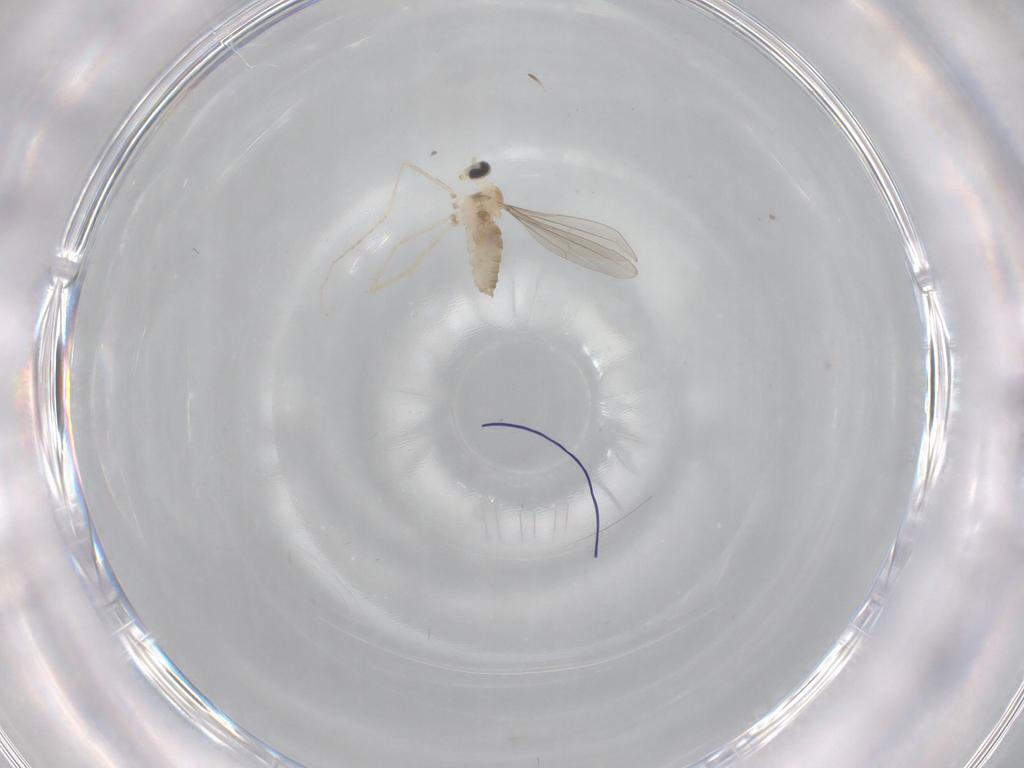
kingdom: Animalia
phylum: Arthropoda
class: Insecta
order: Diptera
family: Cecidomyiidae
